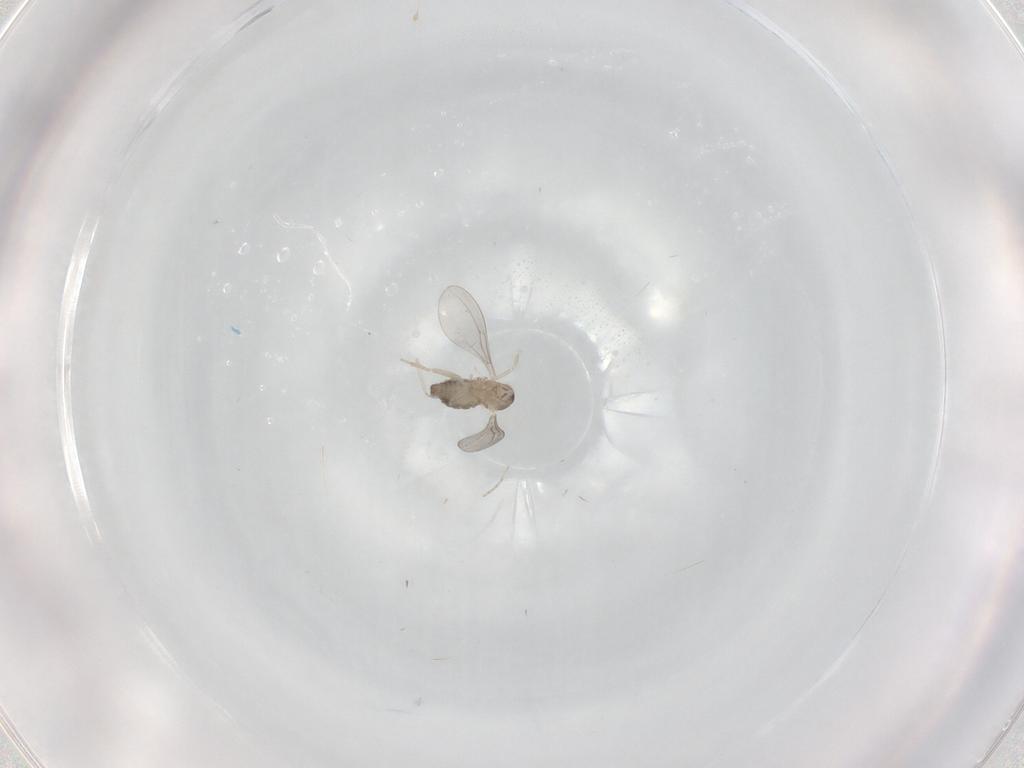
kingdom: Animalia
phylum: Arthropoda
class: Insecta
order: Diptera
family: Cecidomyiidae
